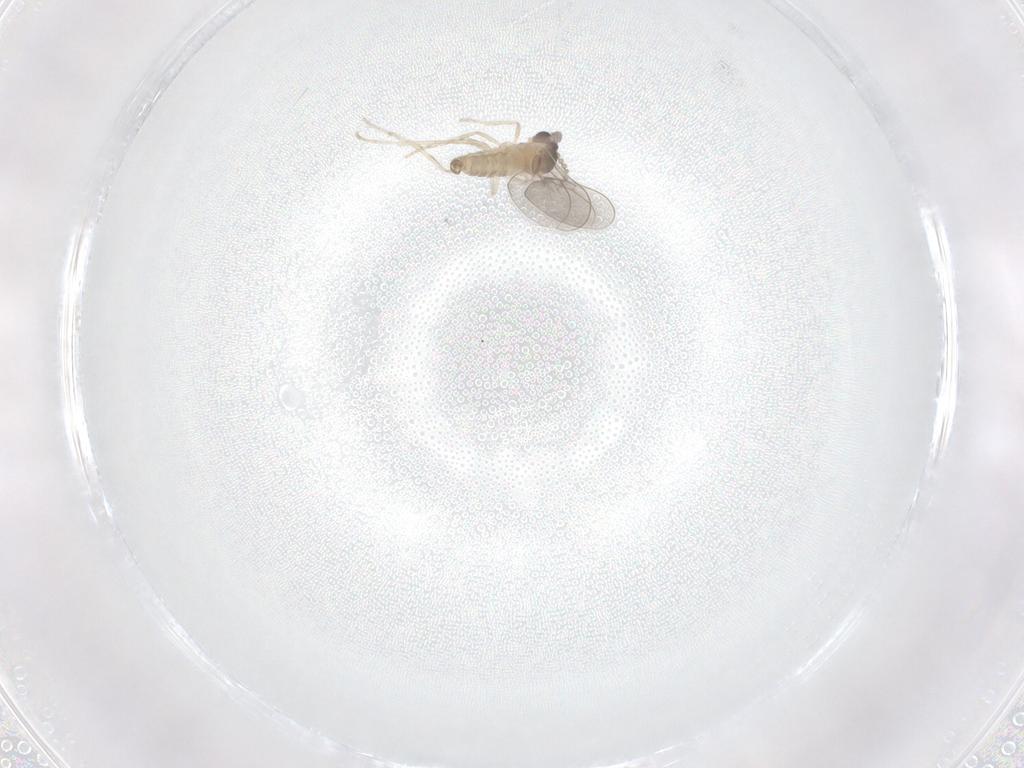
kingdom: Animalia
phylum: Arthropoda
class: Insecta
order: Diptera
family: Cecidomyiidae
